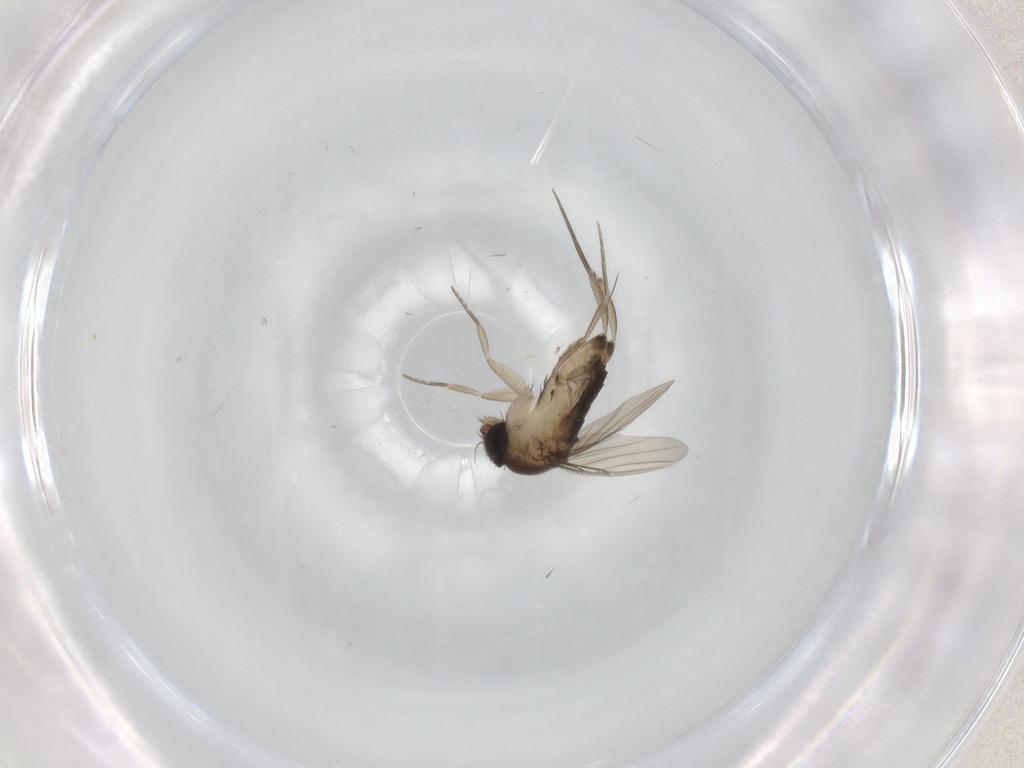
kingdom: Animalia
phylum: Arthropoda
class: Insecta
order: Diptera
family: Phoridae
